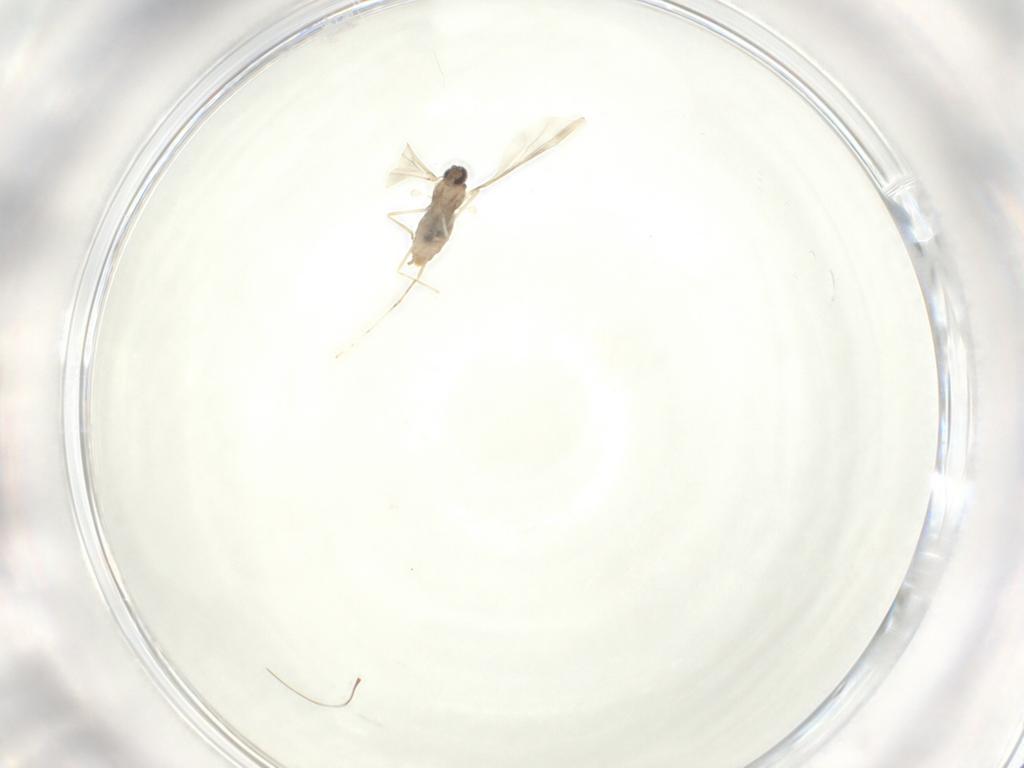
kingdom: Animalia
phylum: Arthropoda
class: Insecta
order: Diptera
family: Cecidomyiidae
